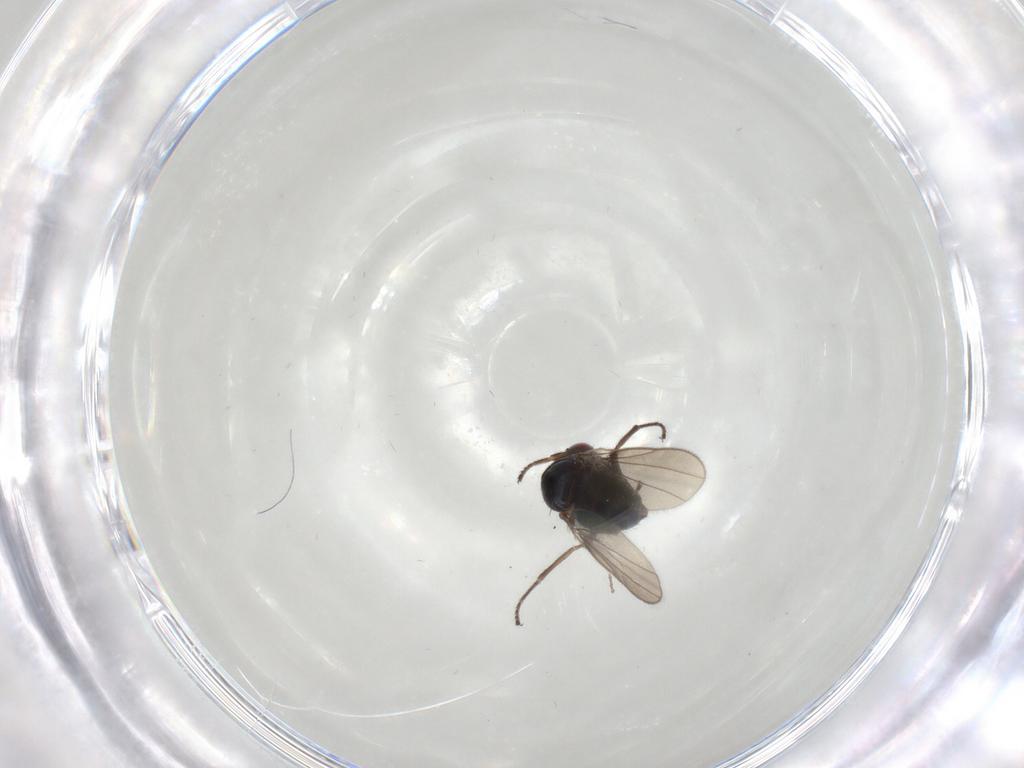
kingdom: Animalia
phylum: Arthropoda
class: Insecta
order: Diptera
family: Ephydridae
